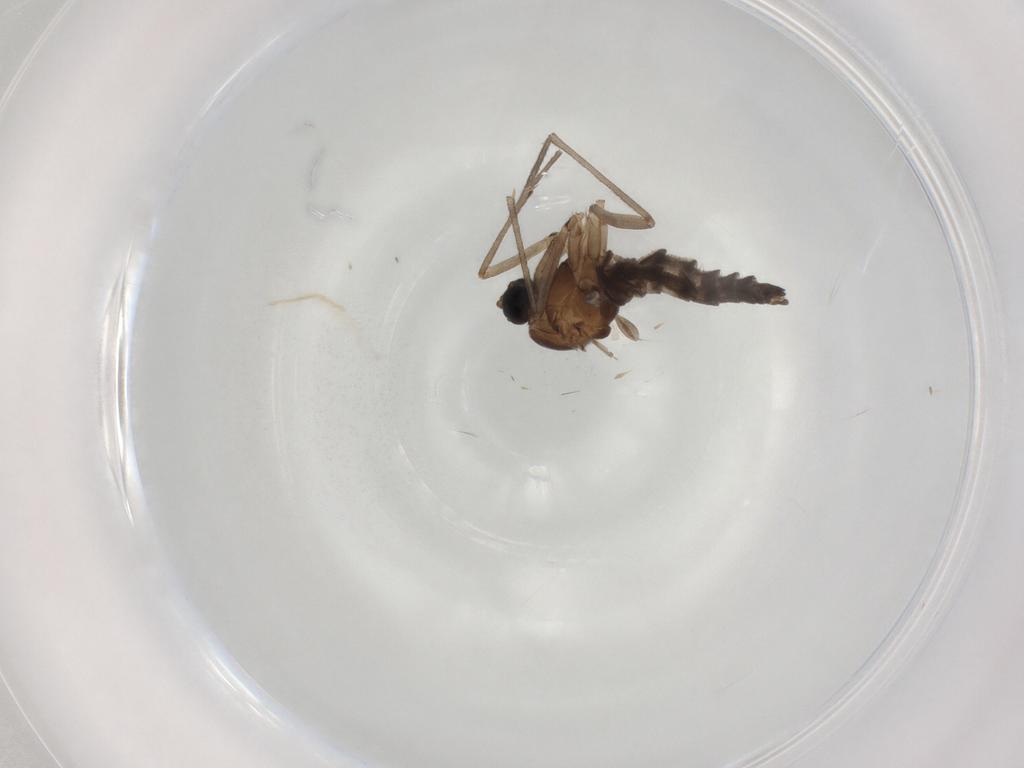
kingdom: Animalia
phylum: Arthropoda
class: Insecta
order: Diptera
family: Sciaridae
